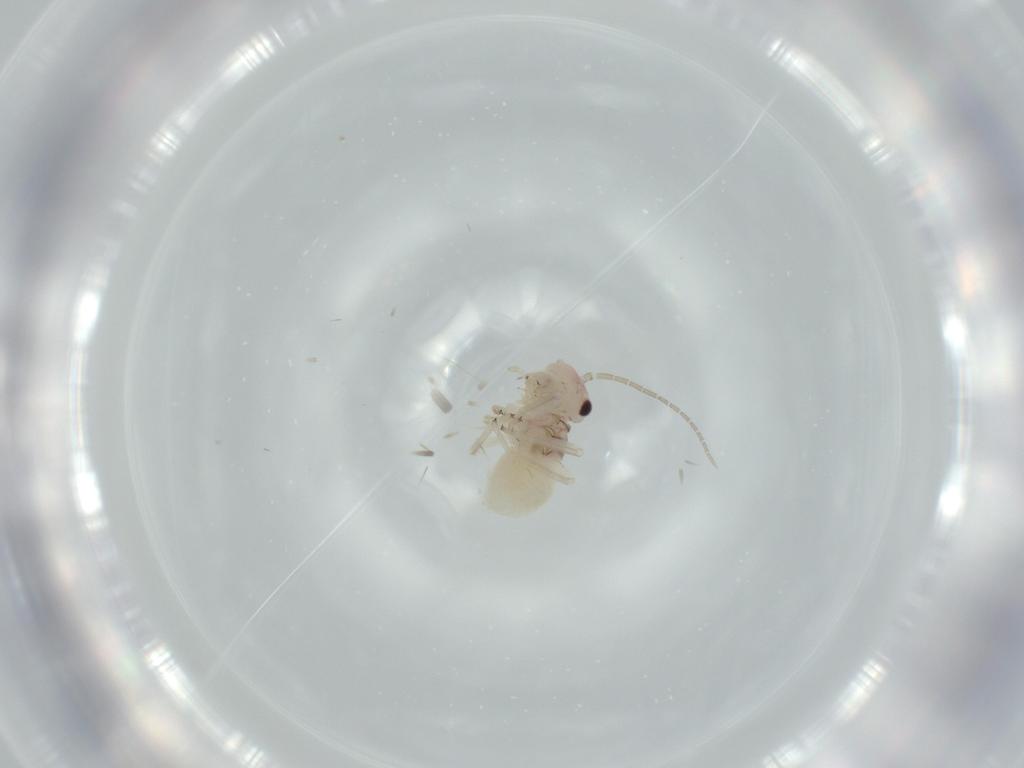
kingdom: Animalia
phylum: Arthropoda
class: Insecta
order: Psocodea
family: Amphipsocidae
